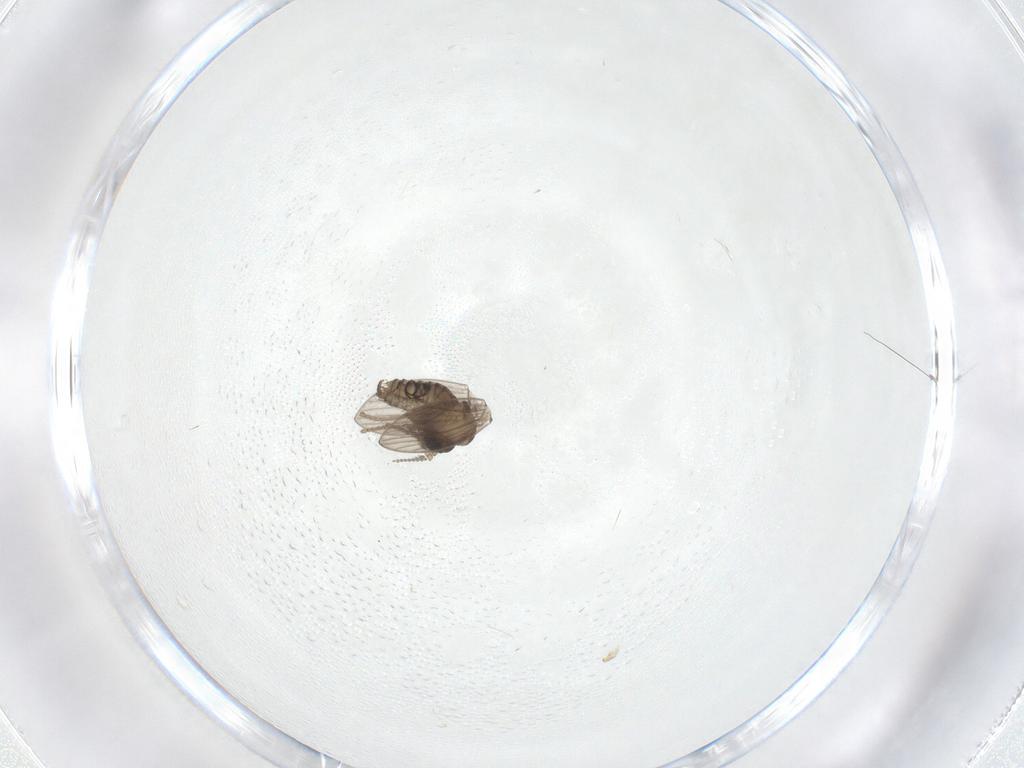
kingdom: Animalia
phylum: Arthropoda
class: Insecta
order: Diptera
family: Psychodidae
